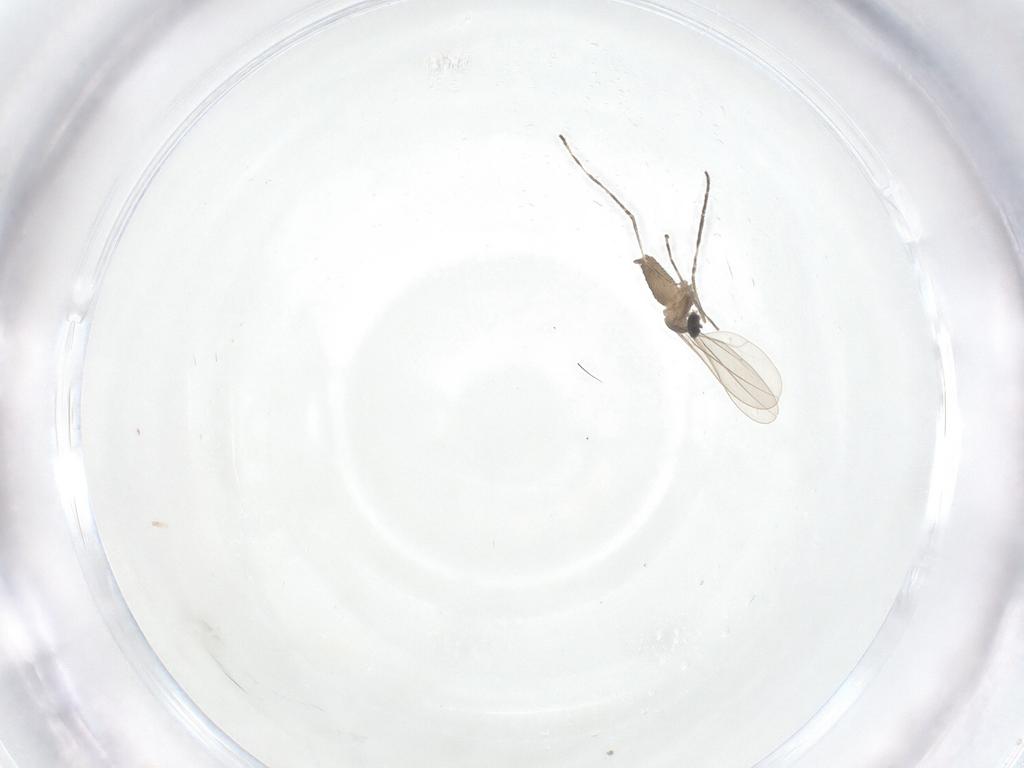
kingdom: Animalia
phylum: Arthropoda
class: Insecta
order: Diptera
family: Cecidomyiidae
